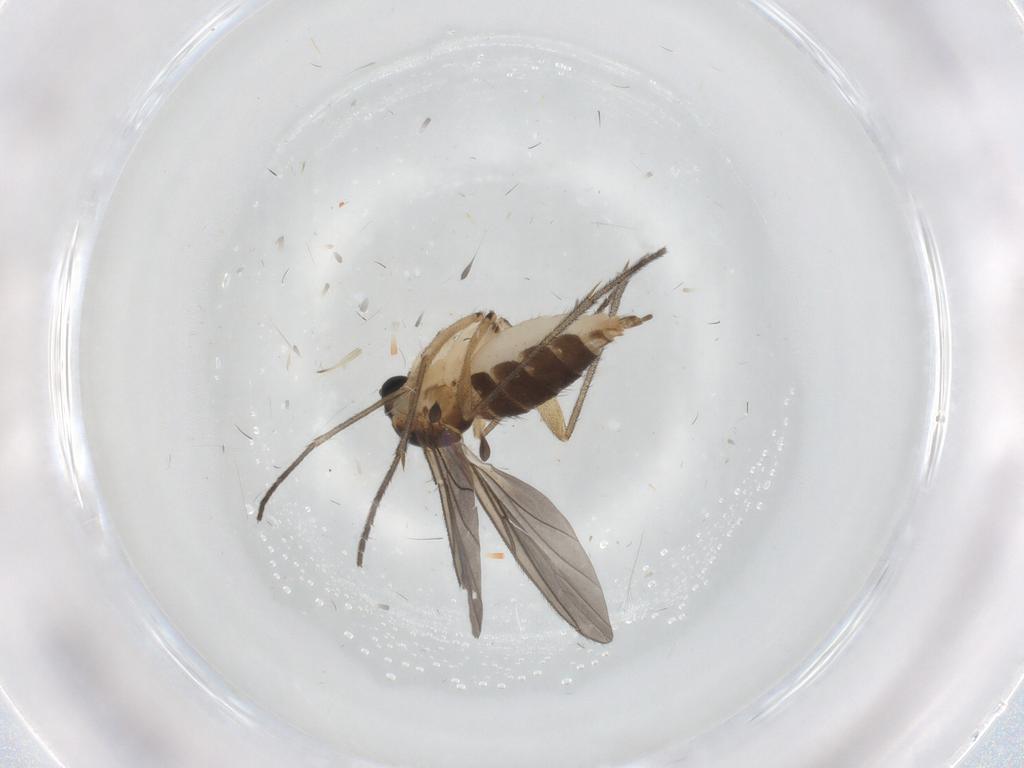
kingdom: Animalia
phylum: Arthropoda
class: Insecta
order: Diptera
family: Sciaridae
